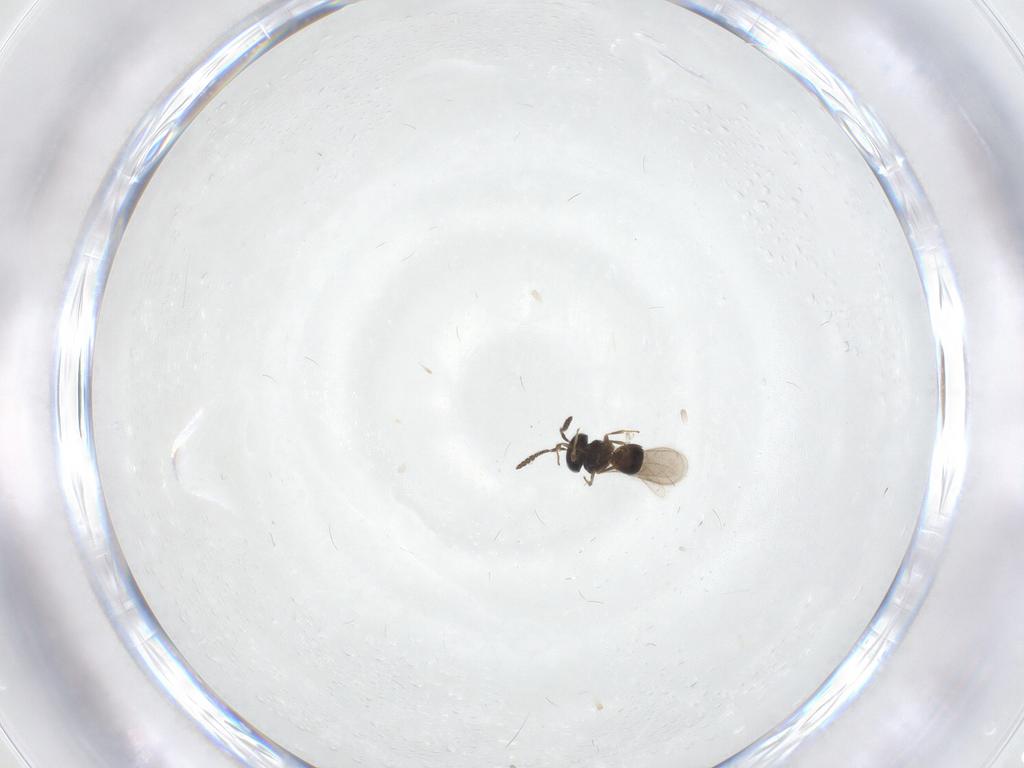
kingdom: Animalia
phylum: Arthropoda
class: Insecta
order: Hymenoptera
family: Scelionidae
